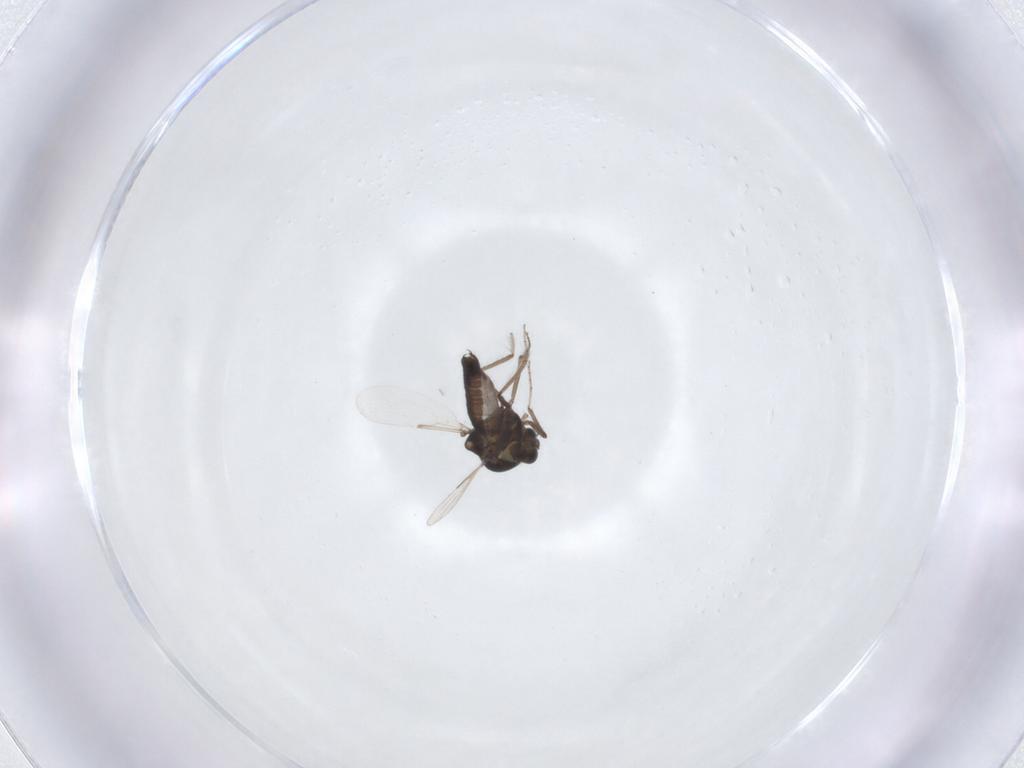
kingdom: Animalia
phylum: Arthropoda
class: Insecta
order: Diptera
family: Ceratopogonidae
